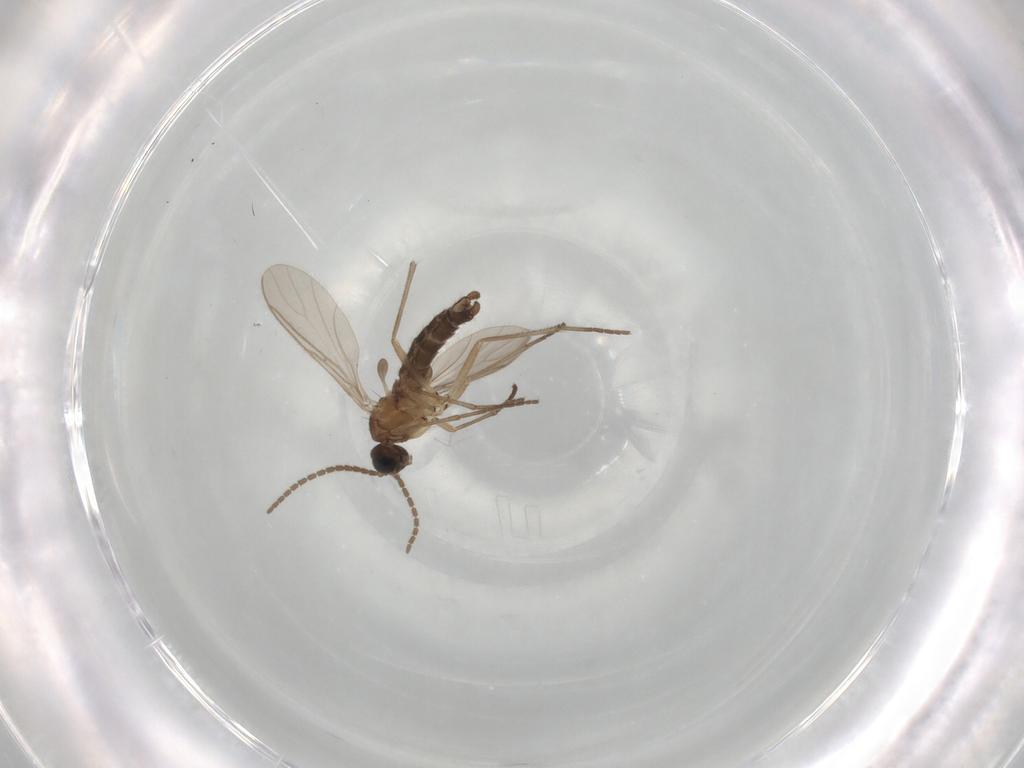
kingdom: Animalia
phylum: Arthropoda
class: Insecta
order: Diptera
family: Sciaridae
